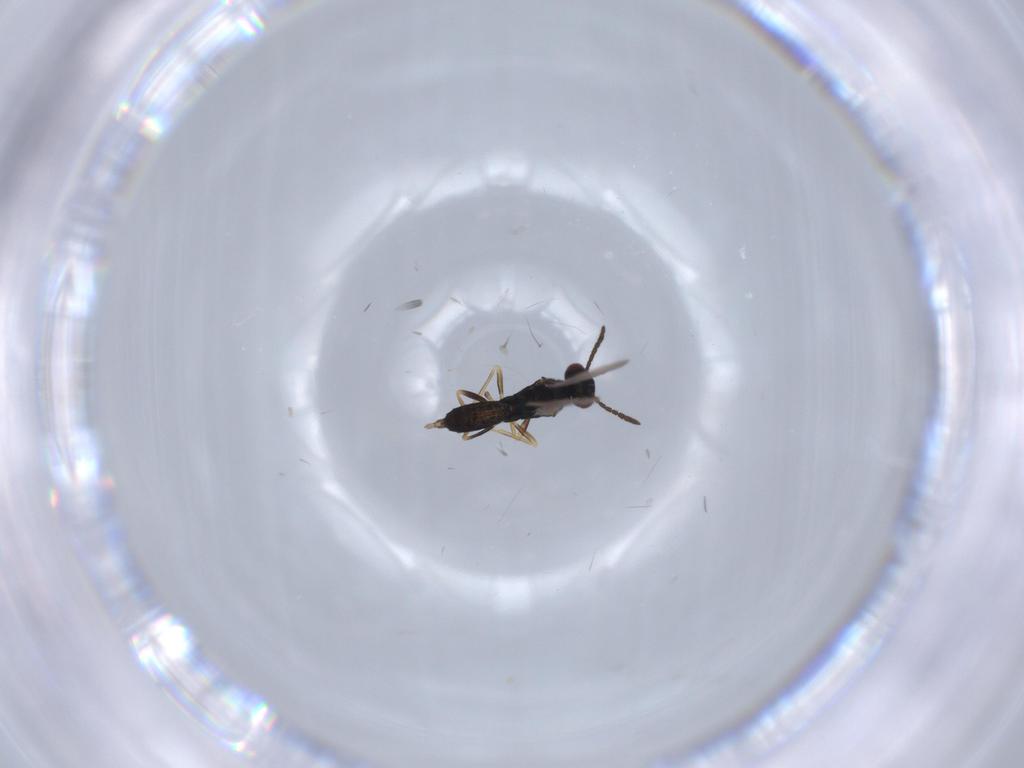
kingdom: Animalia
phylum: Arthropoda
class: Insecta
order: Hymenoptera
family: Pteromalidae
